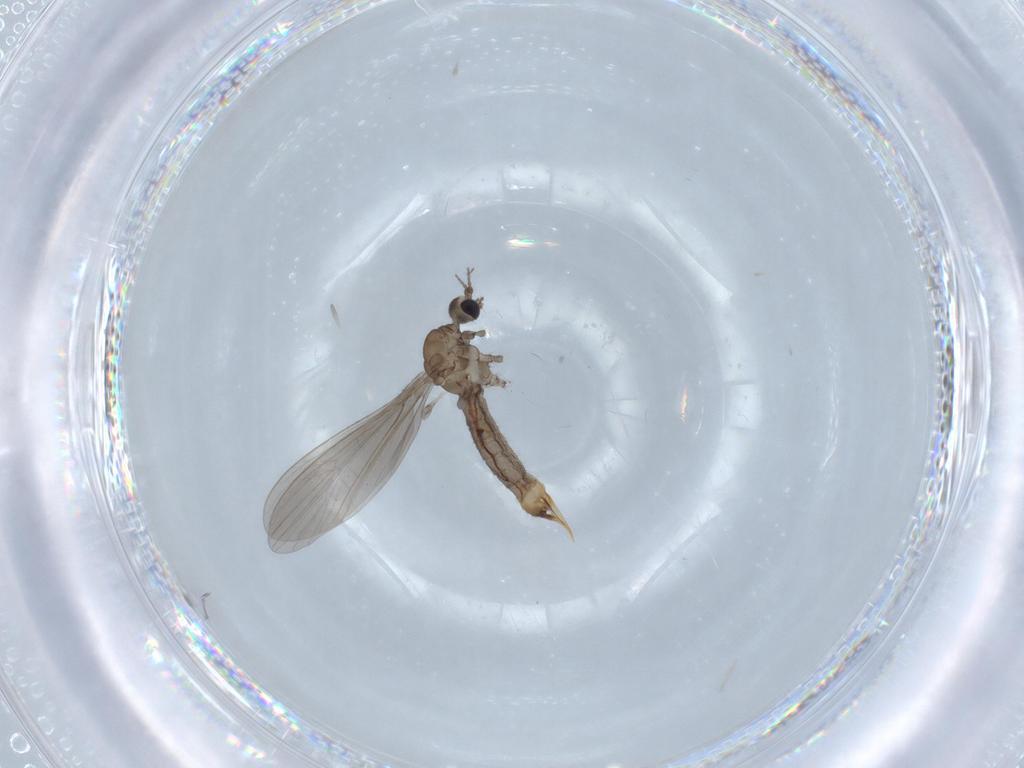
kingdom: Animalia
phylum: Arthropoda
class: Insecta
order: Diptera
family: Limoniidae
